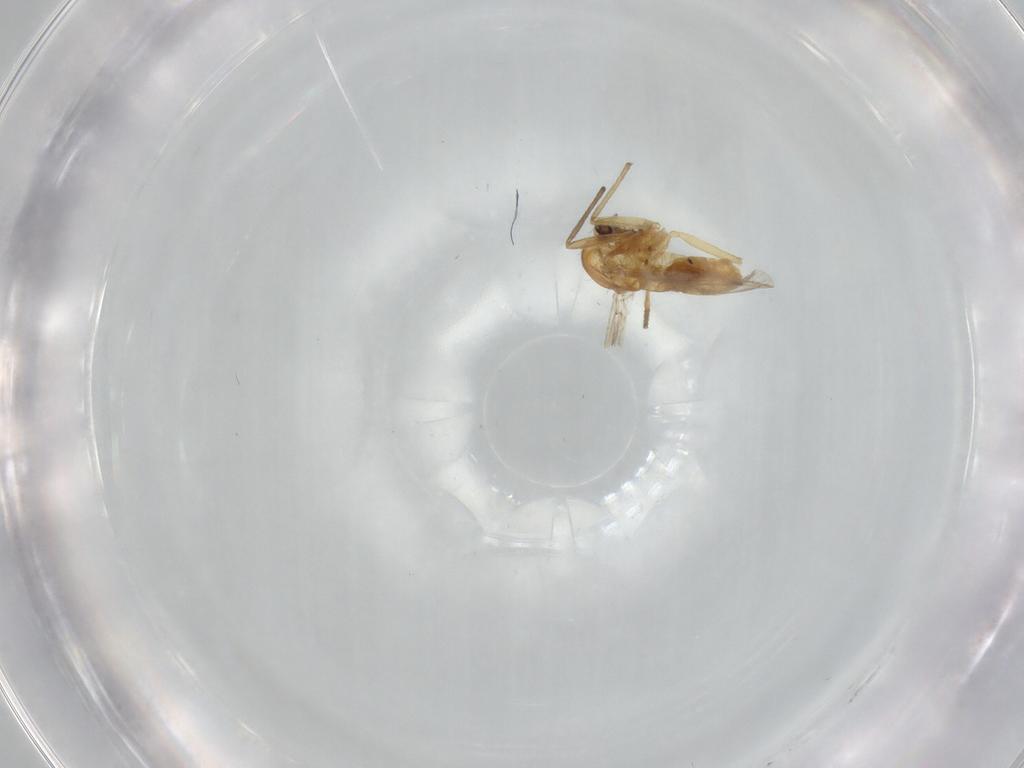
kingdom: Animalia
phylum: Arthropoda
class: Insecta
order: Diptera
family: Chironomidae
